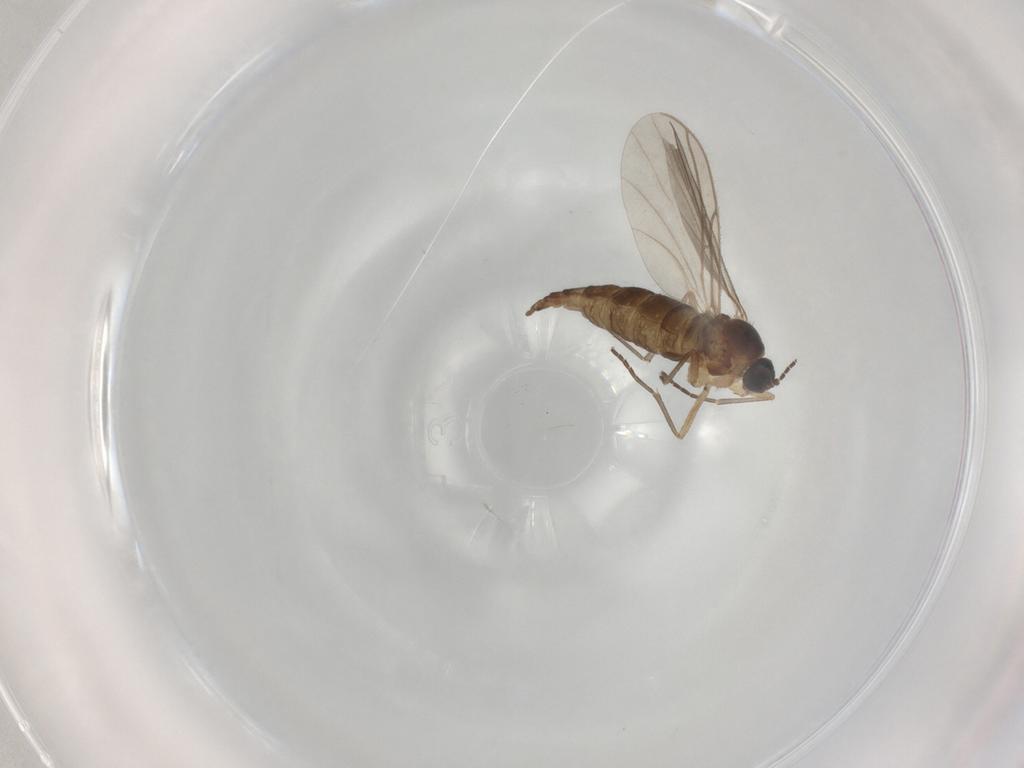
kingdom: Animalia
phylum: Arthropoda
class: Insecta
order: Diptera
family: Sciaridae
